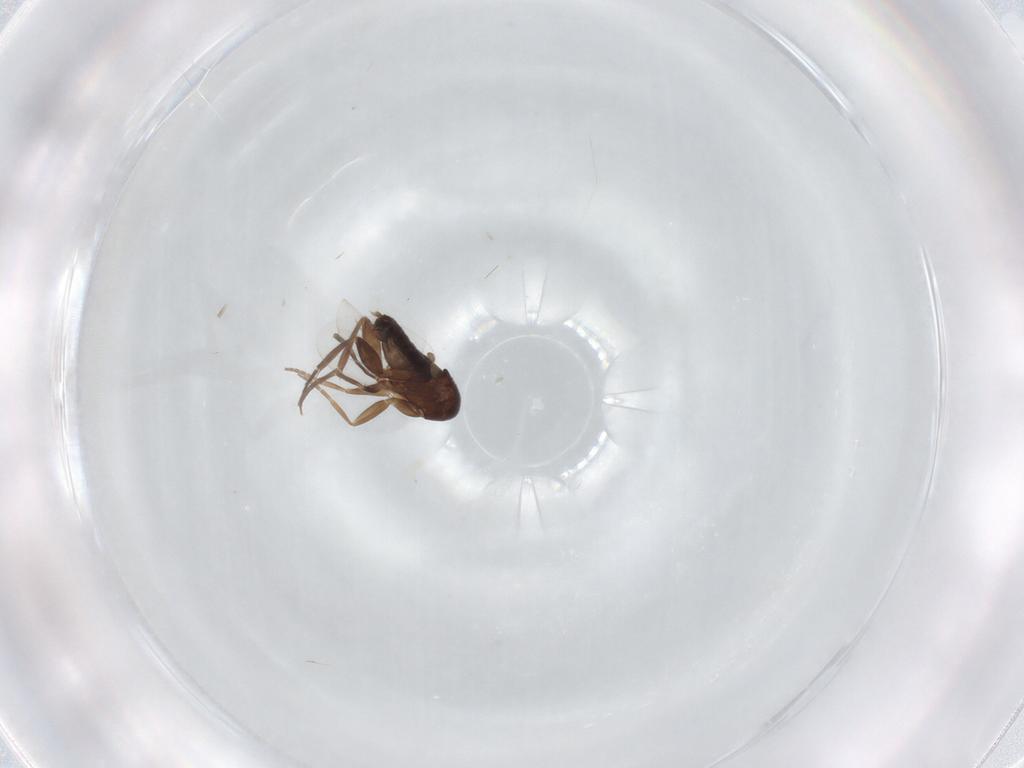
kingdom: Animalia
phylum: Arthropoda
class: Insecta
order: Diptera
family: Phoridae
